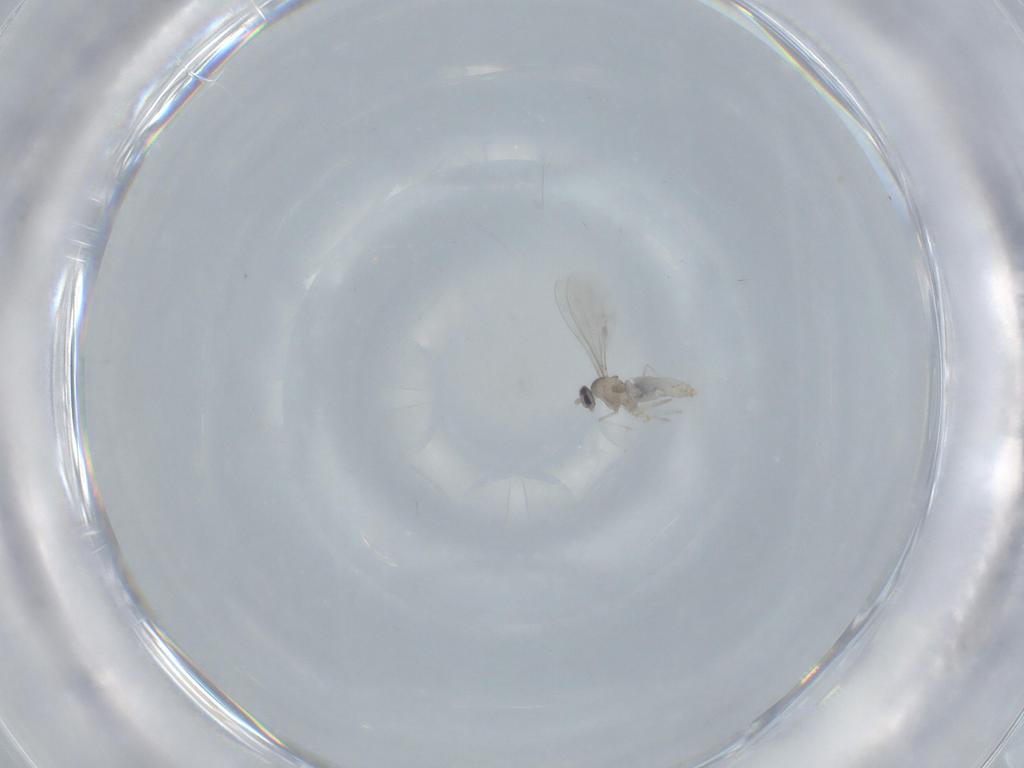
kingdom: Animalia
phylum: Arthropoda
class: Insecta
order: Diptera
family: Cecidomyiidae
